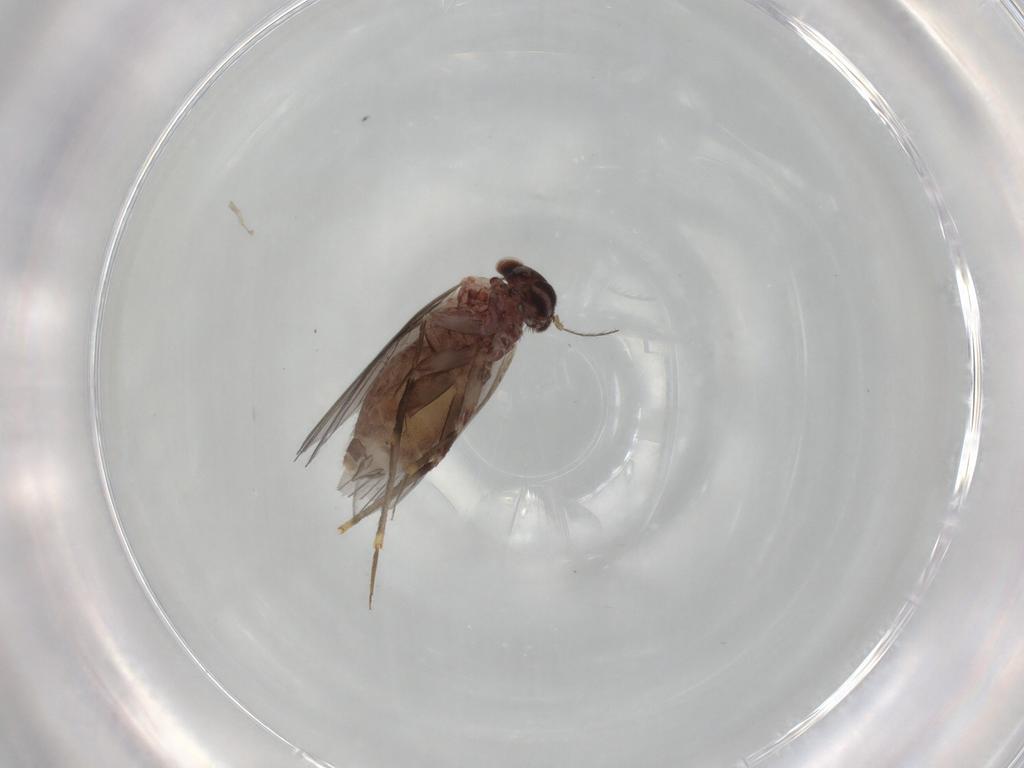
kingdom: Animalia
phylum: Arthropoda
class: Insecta
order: Psocodea
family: Lepidopsocidae
